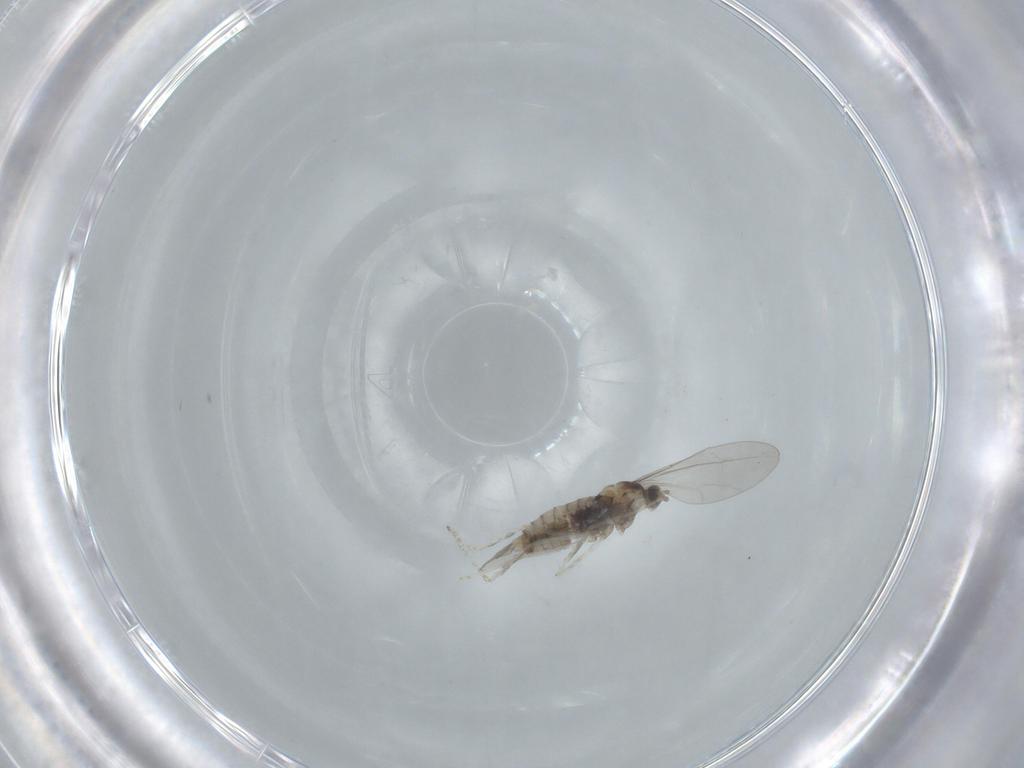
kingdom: Animalia
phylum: Arthropoda
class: Insecta
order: Diptera
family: Cecidomyiidae
